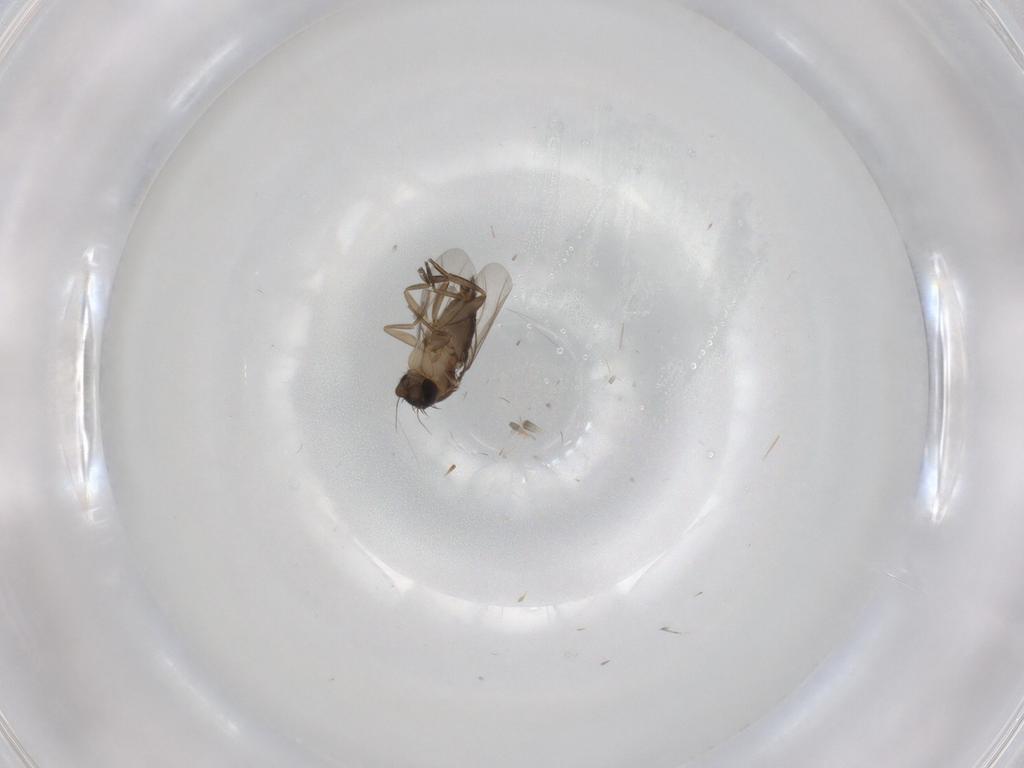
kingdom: Animalia
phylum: Arthropoda
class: Insecta
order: Diptera
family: Phoridae
